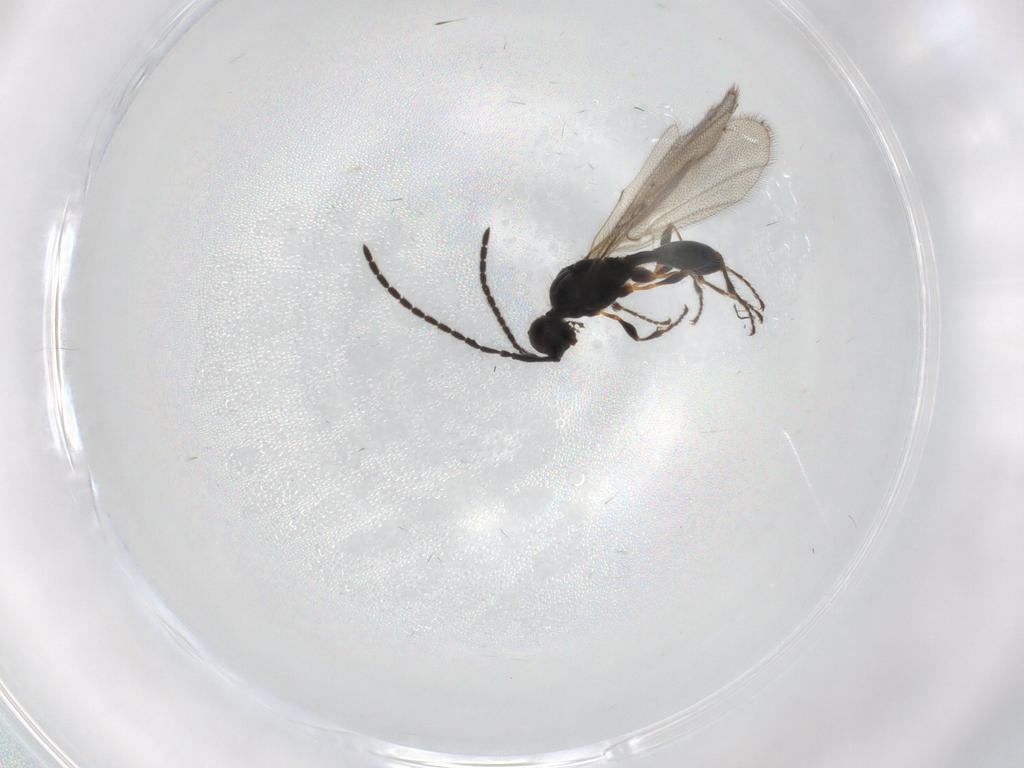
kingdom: Animalia
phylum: Arthropoda
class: Insecta
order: Hymenoptera
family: Diapriidae
